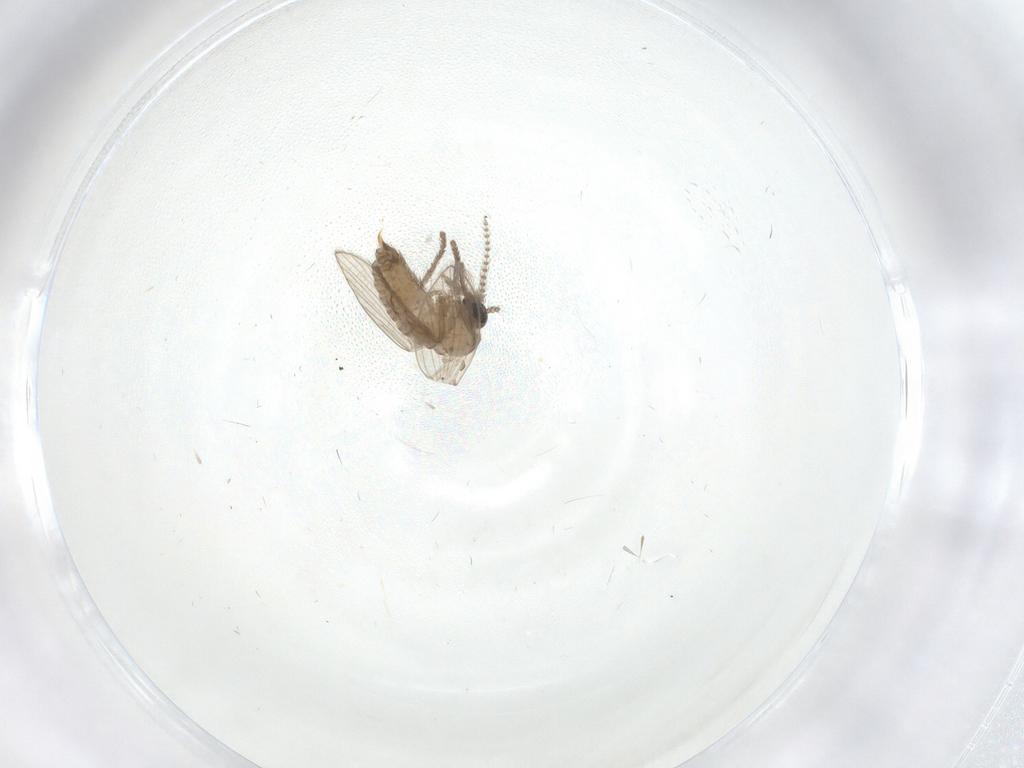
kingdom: Animalia
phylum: Arthropoda
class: Insecta
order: Diptera
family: Psychodidae
